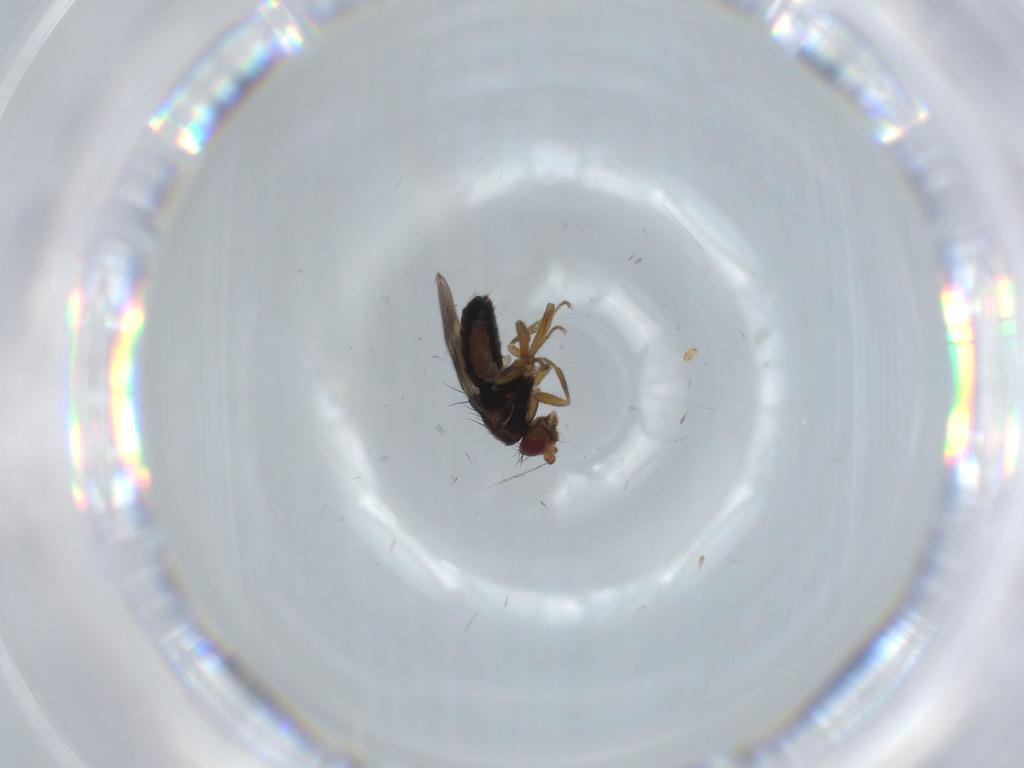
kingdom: Animalia
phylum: Arthropoda
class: Insecta
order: Diptera
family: Sphaeroceridae
